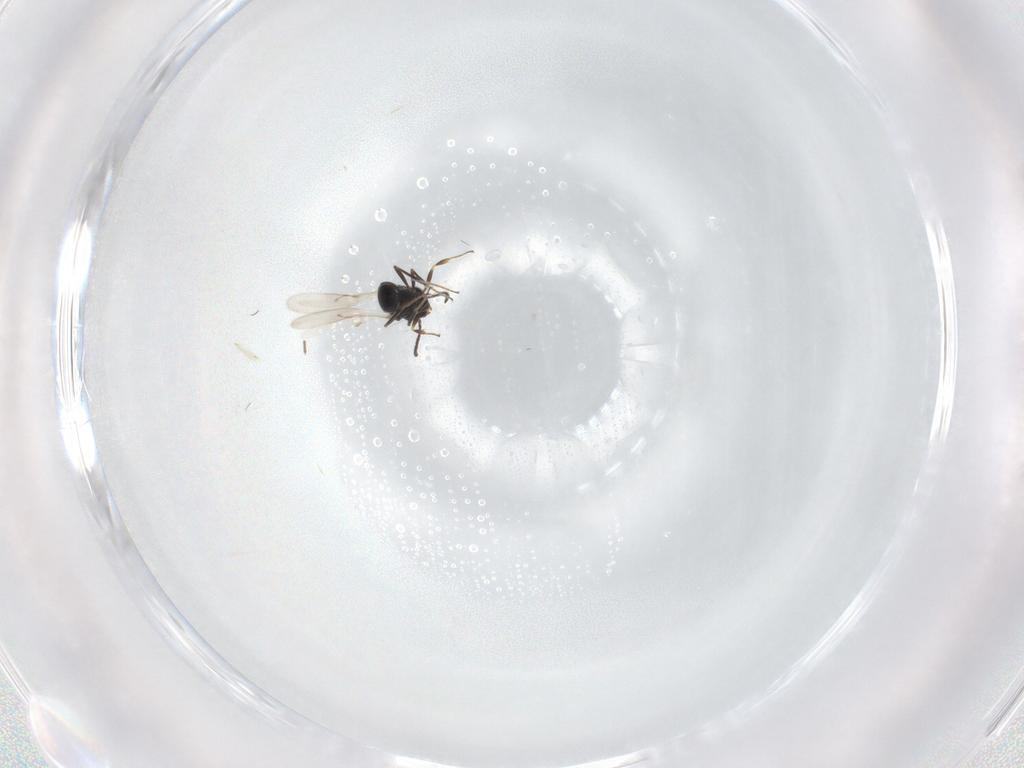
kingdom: Animalia
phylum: Arthropoda
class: Insecta
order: Hymenoptera
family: Scelionidae
